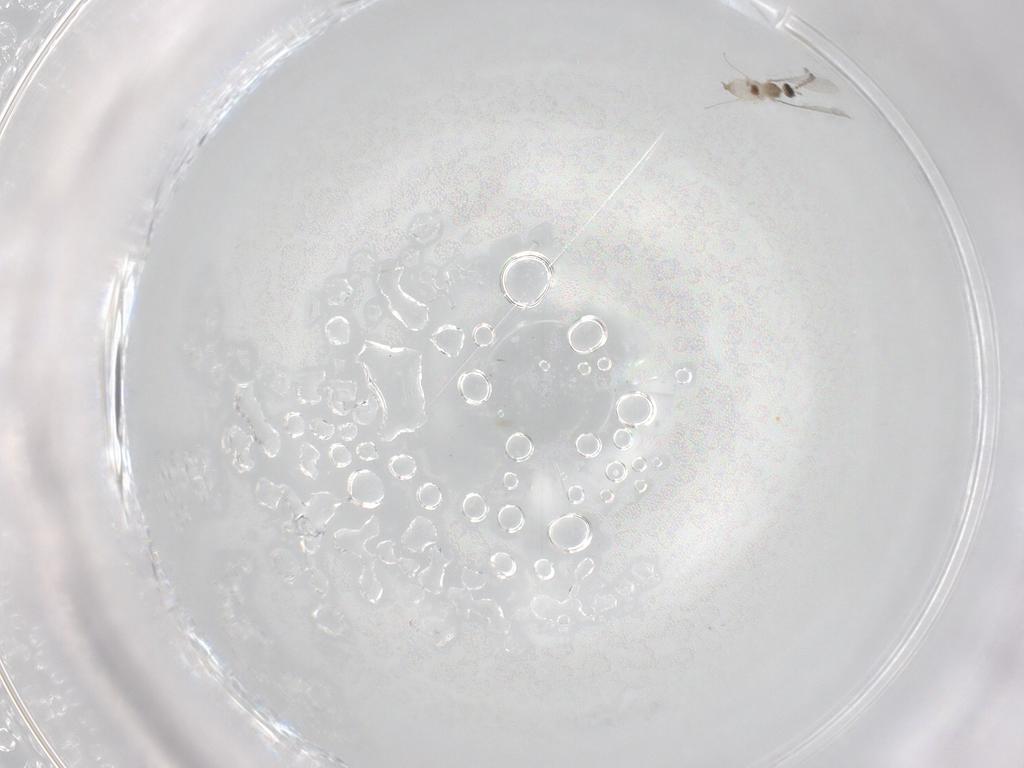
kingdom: Animalia
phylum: Arthropoda
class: Insecta
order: Diptera
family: Cecidomyiidae
